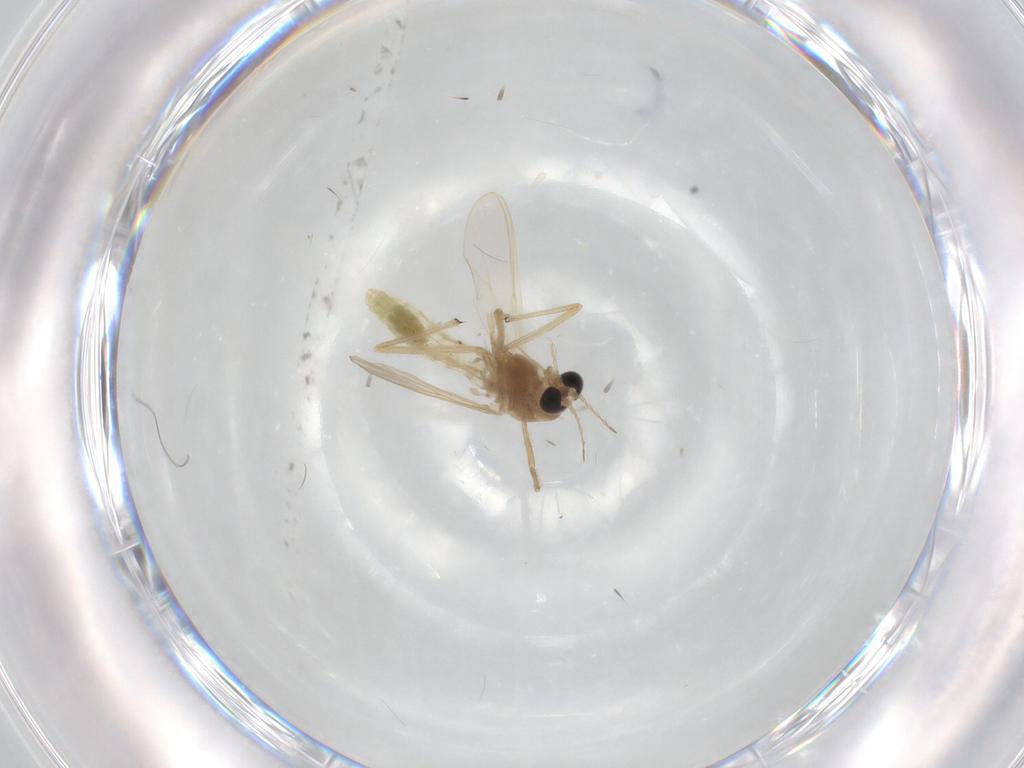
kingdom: Animalia
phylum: Arthropoda
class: Insecta
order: Diptera
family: Chironomidae
